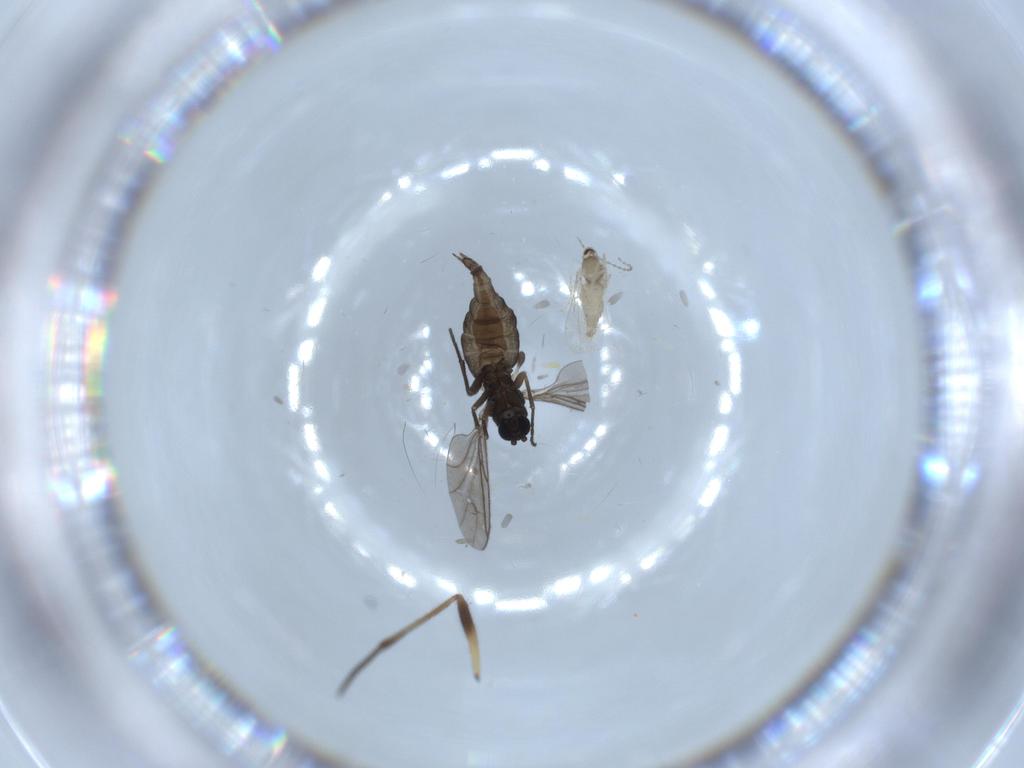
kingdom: Animalia
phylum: Arthropoda
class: Insecta
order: Diptera
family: Cecidomyiidae
